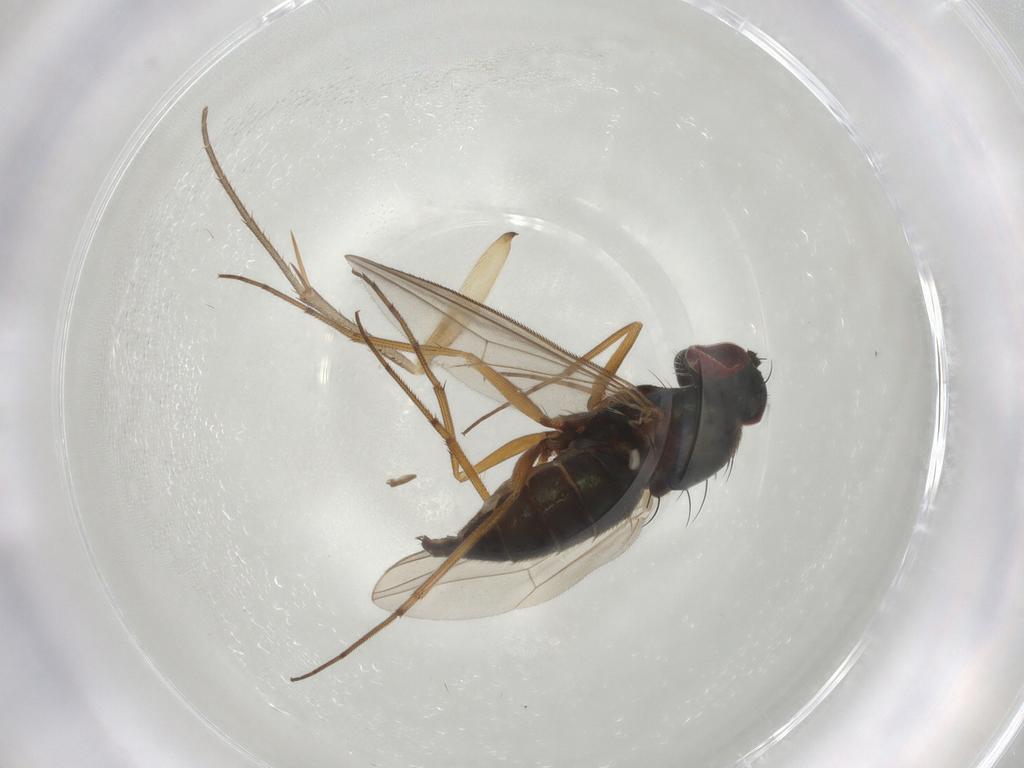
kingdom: Animalia
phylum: Arthropoda
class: Insecta
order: Diptera
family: Dolichopodidae
